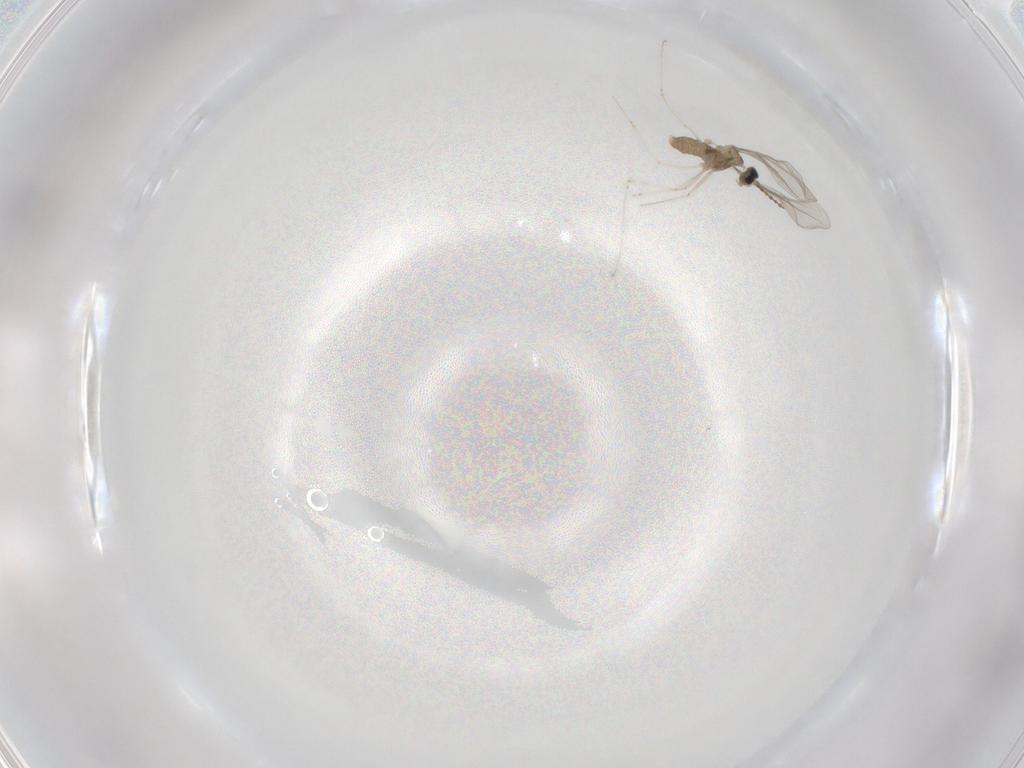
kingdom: Animalia
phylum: Arthropoda
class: Insecta
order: Diptera
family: Cecidomyiidae
